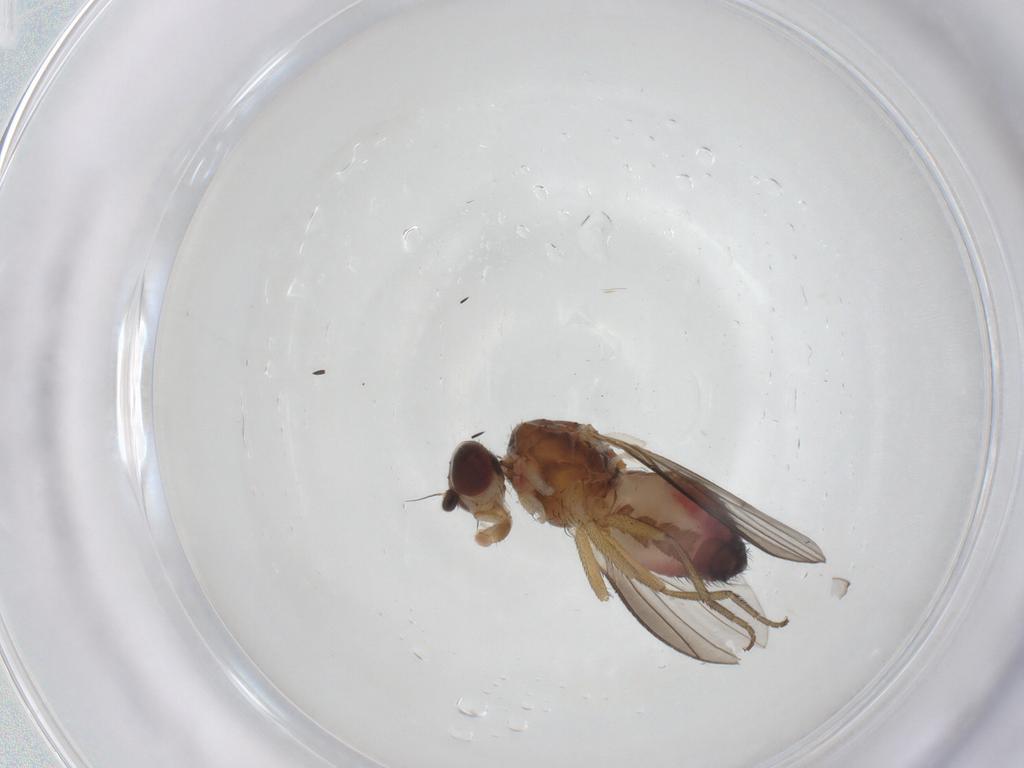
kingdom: Animalia
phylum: Arthropoda
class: Insecta
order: Diptera
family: Heleomyzidae
